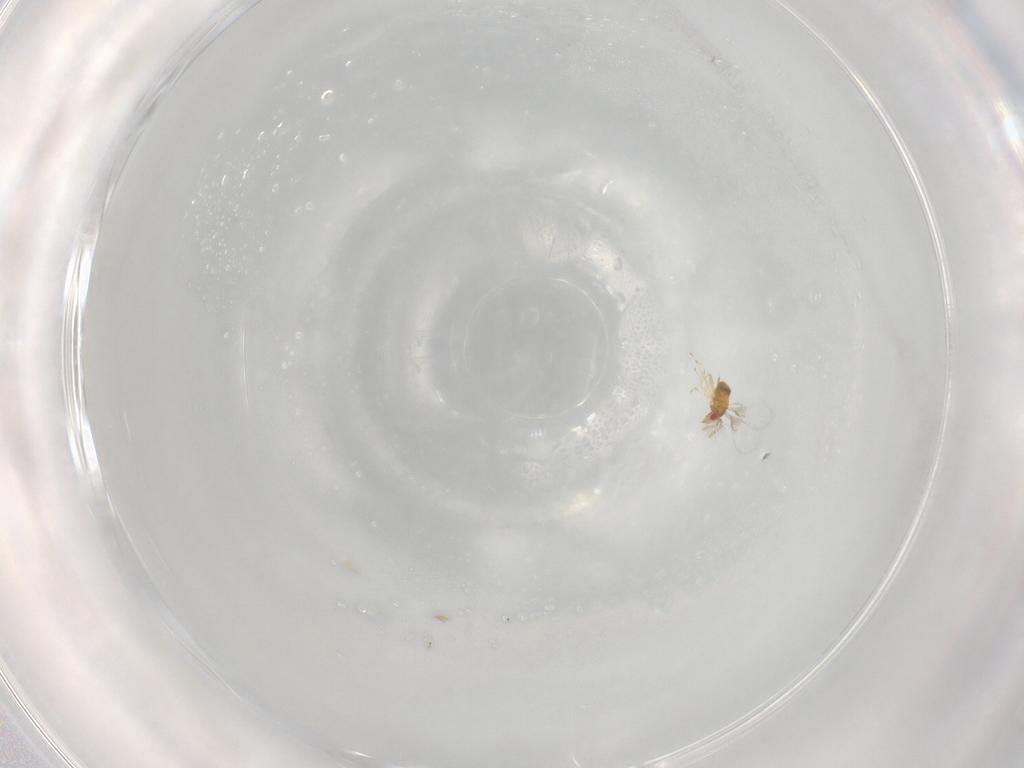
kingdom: Animalia
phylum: Arthropoda
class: Insecta
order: Hymenoptera
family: Trichogrammatidae
